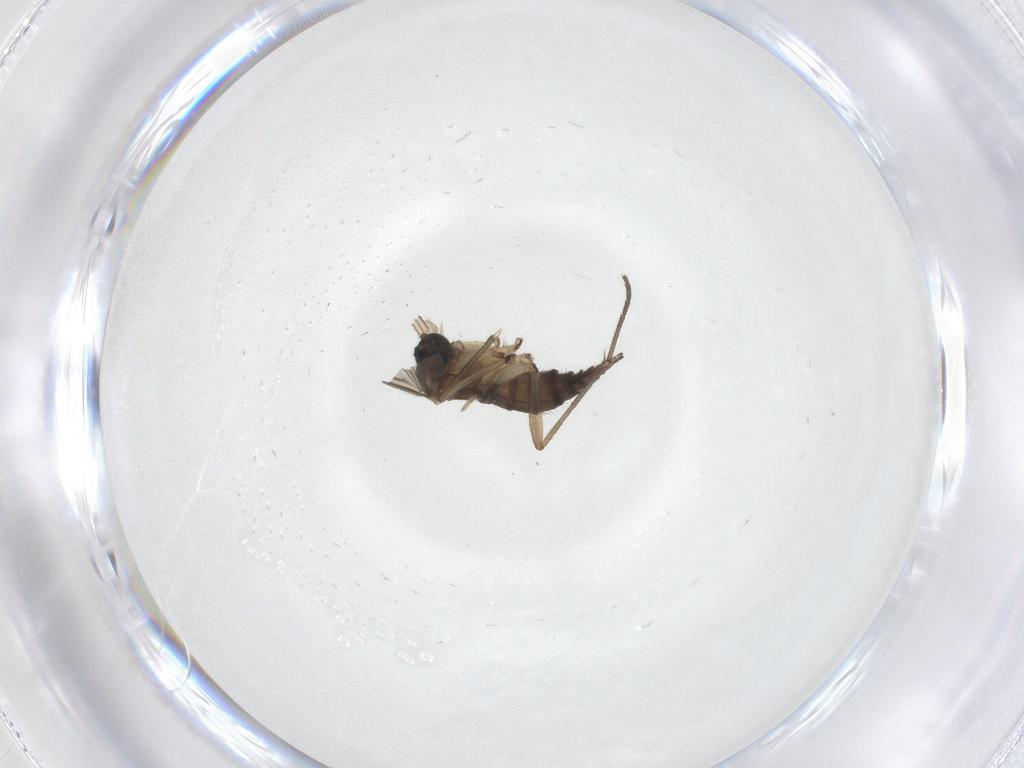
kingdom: Animalia
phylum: Arthropoda
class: Insecta
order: Diptera
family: Sciaridae
